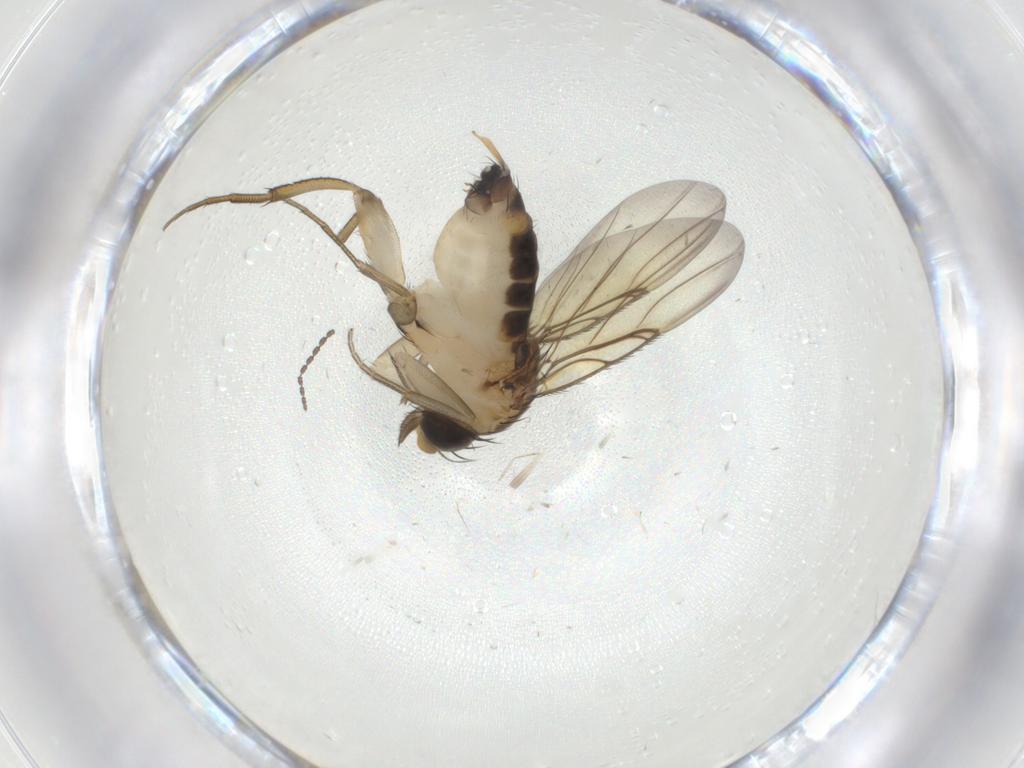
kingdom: Animalia
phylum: Arthropoda
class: Insecta
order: Diptera
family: Phoridae
